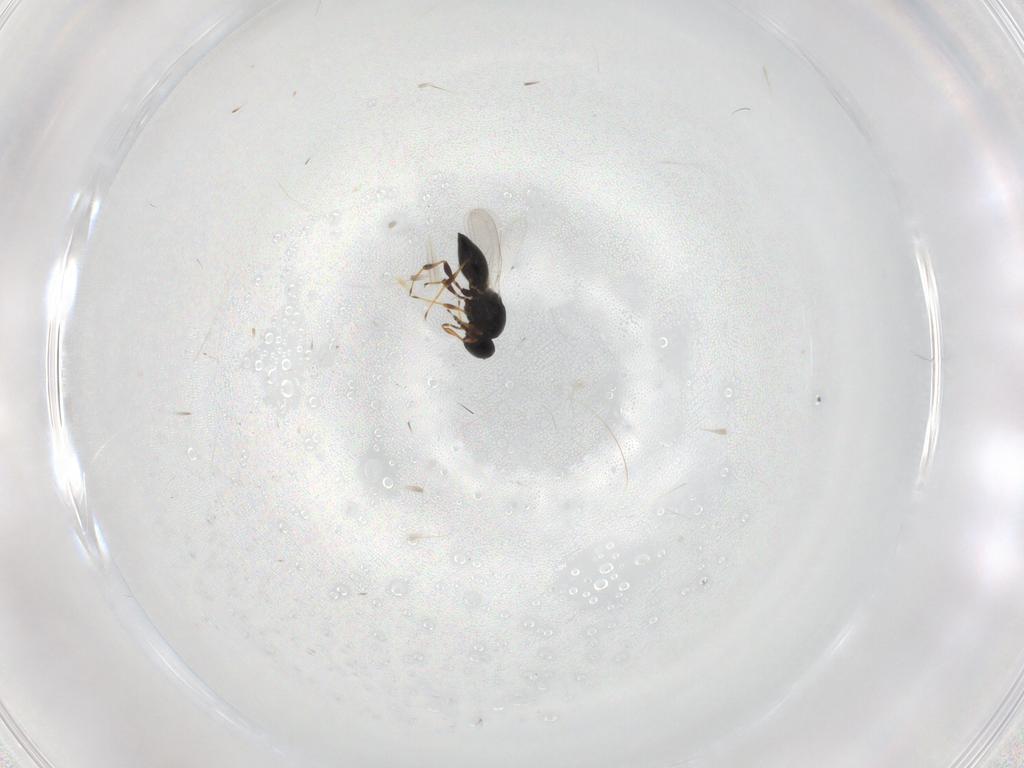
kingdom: Animalia
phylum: Arthropoda
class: Insecta
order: Hymenoptera
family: Platygastridae
